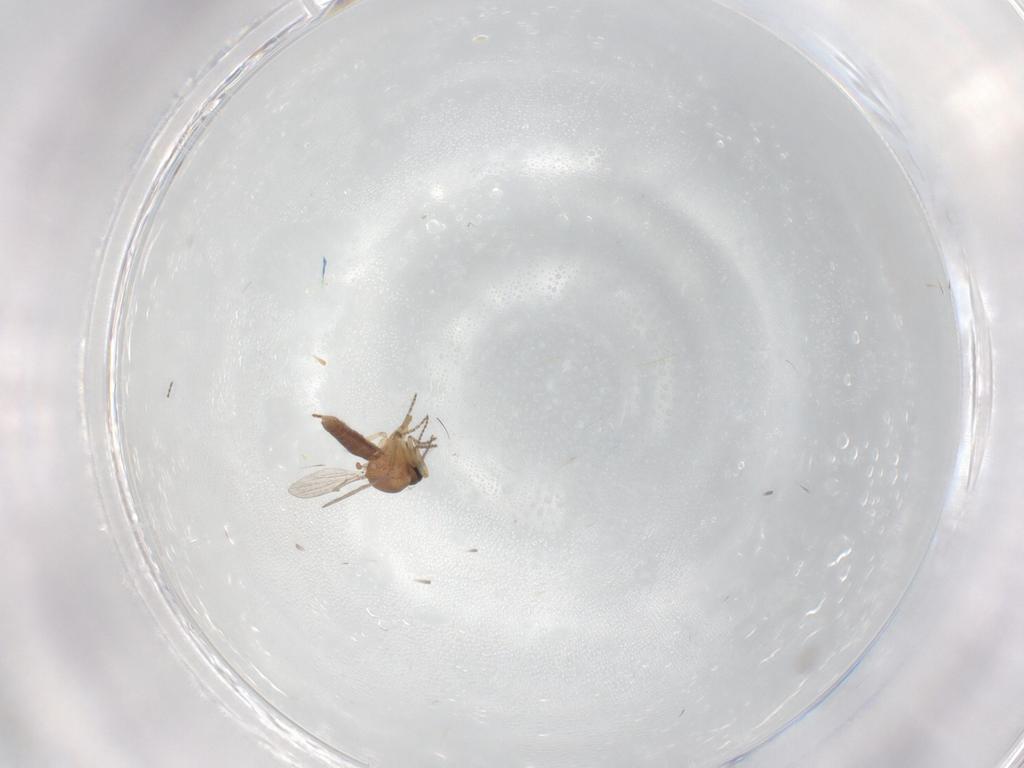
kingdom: Animalia
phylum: Arthropoda
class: Insecta
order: Diptera
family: Ceratopogonidae
